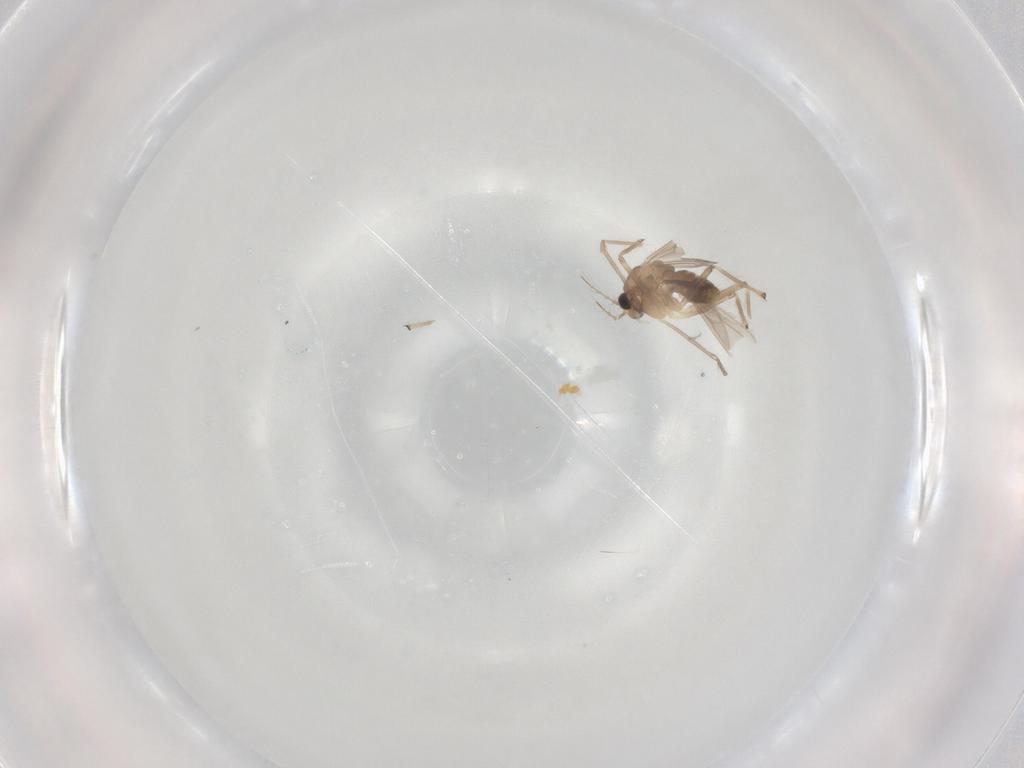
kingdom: Animalia
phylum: Arthropoda
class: Insecta
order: Diptera
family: Chironomidae
